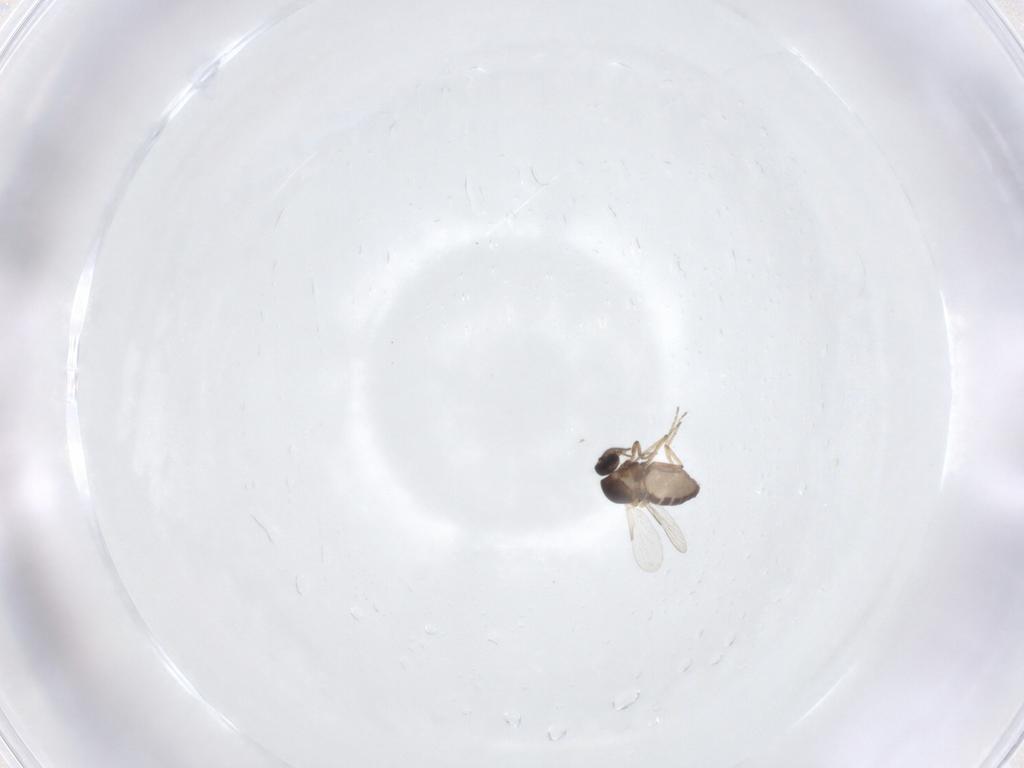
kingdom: Animalia
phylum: Arthropoda
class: Insecta
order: Diptera
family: Ceratopogonidae
